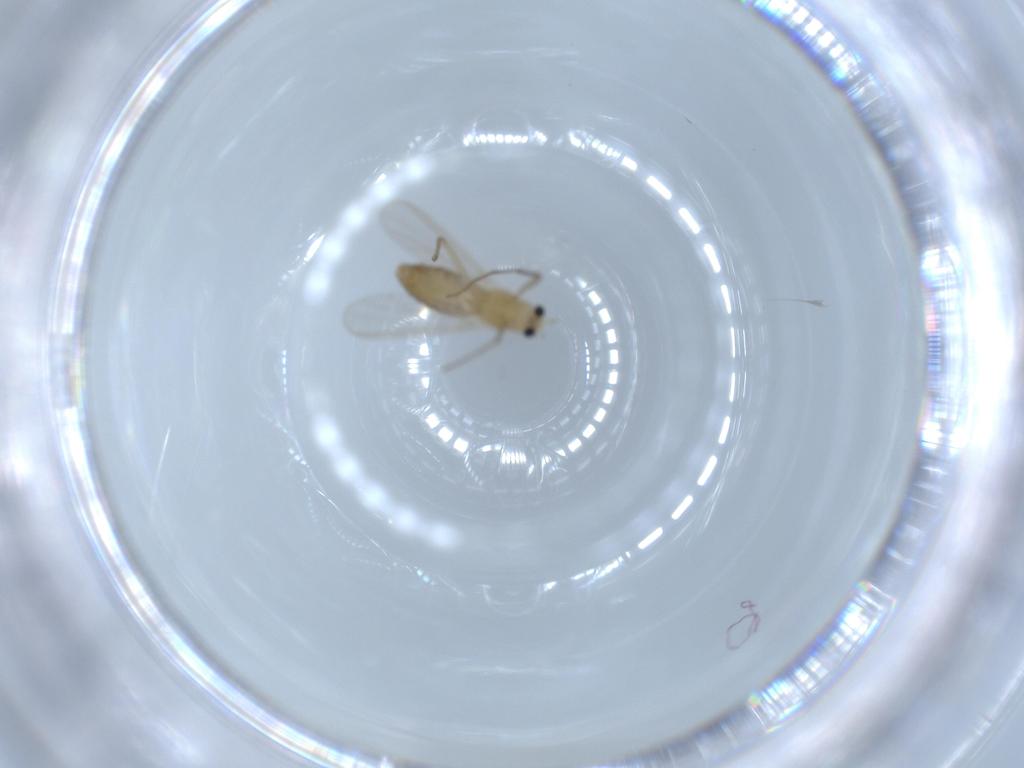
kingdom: Animalia
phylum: Arthropoda
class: Insecta
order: Diptera
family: Chironomidae
